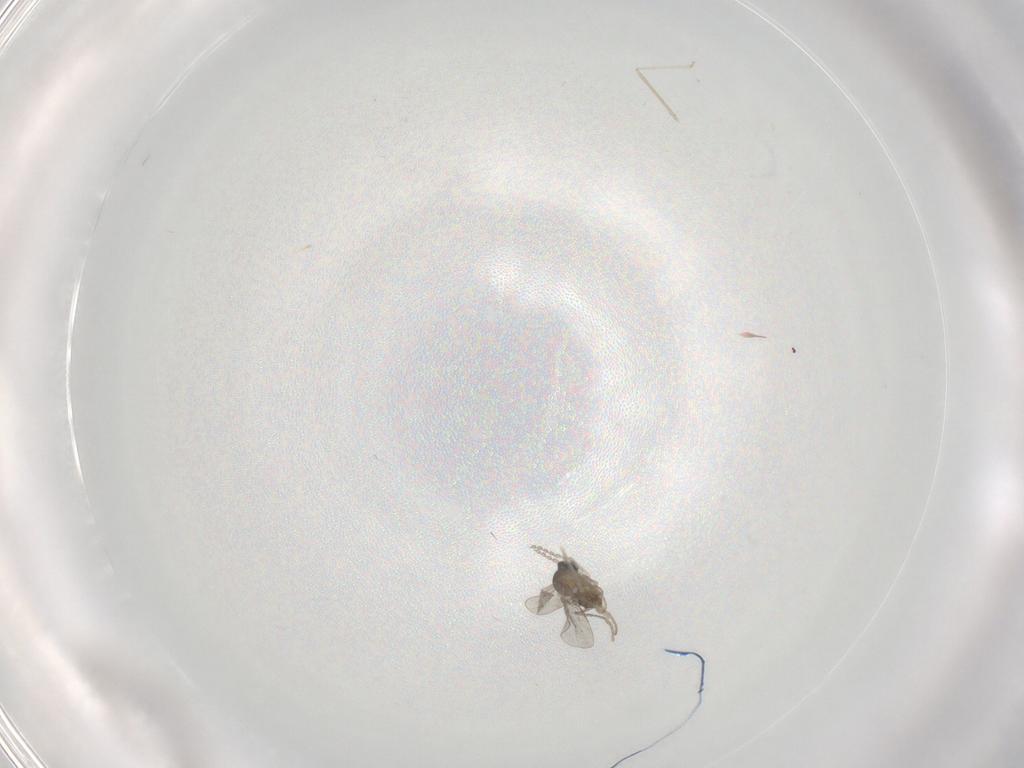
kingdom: Animalia
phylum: Arthropoda
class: Insecta
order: Diptera
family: Cecidomyiidae
